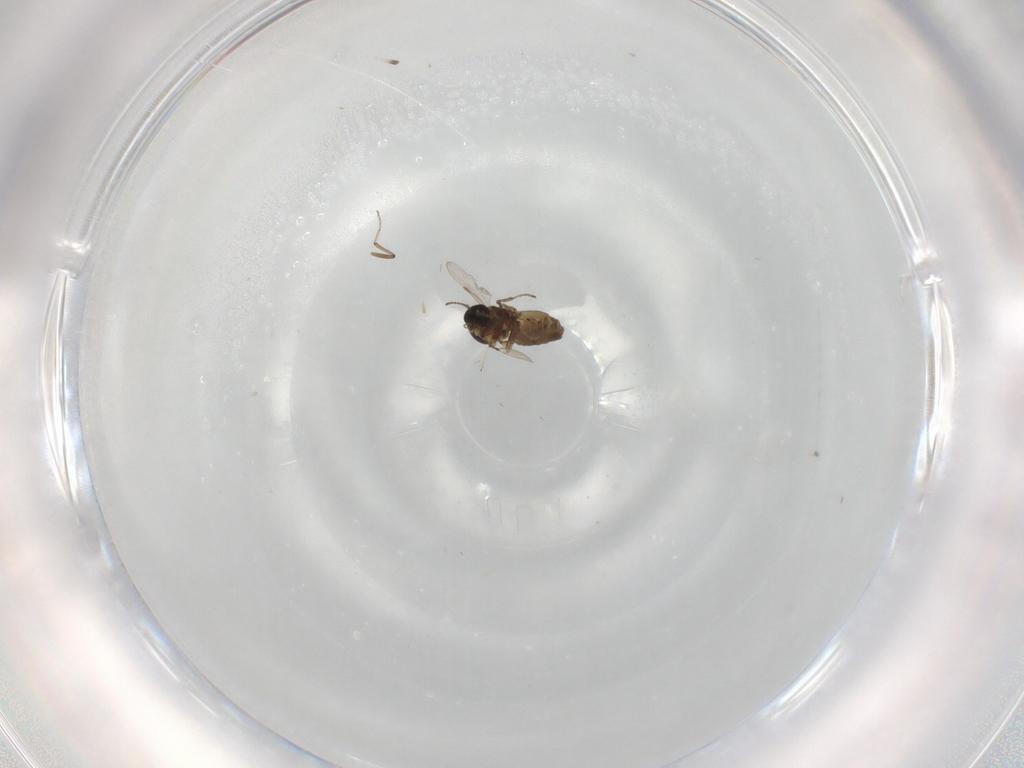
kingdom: Animalia
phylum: Arthropoda
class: Insecta
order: Diptera
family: Ceratopogonidae
